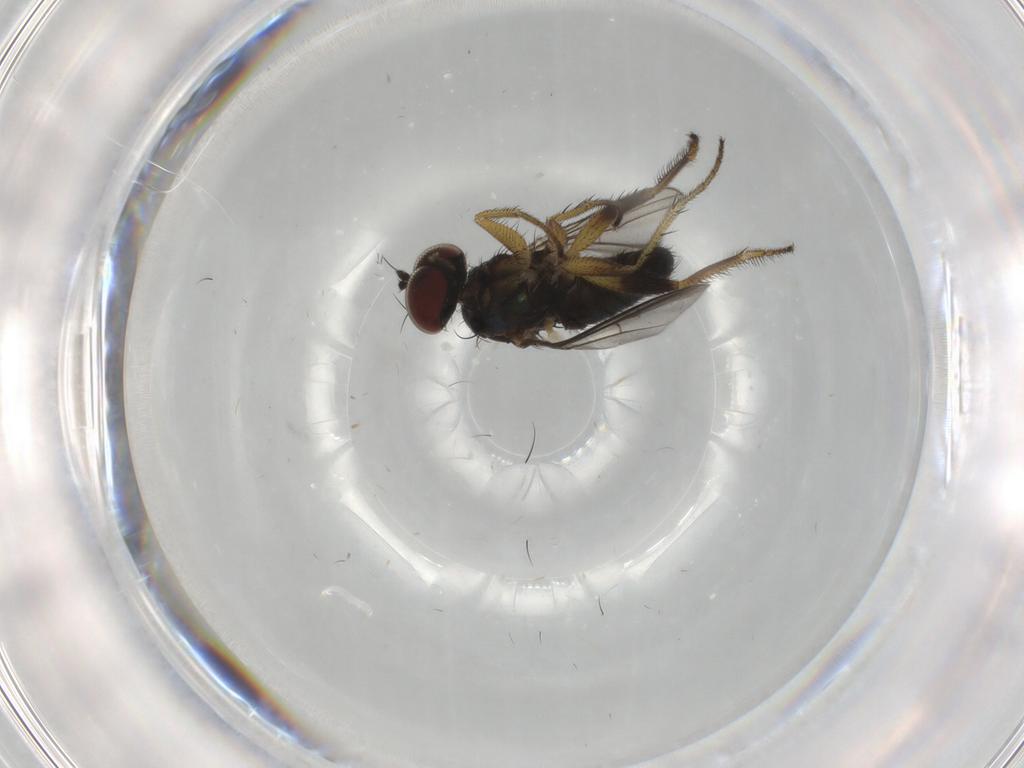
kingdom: Animalia
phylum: Arthropoda
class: Insecta
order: Diptera
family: Dolichopodidae
